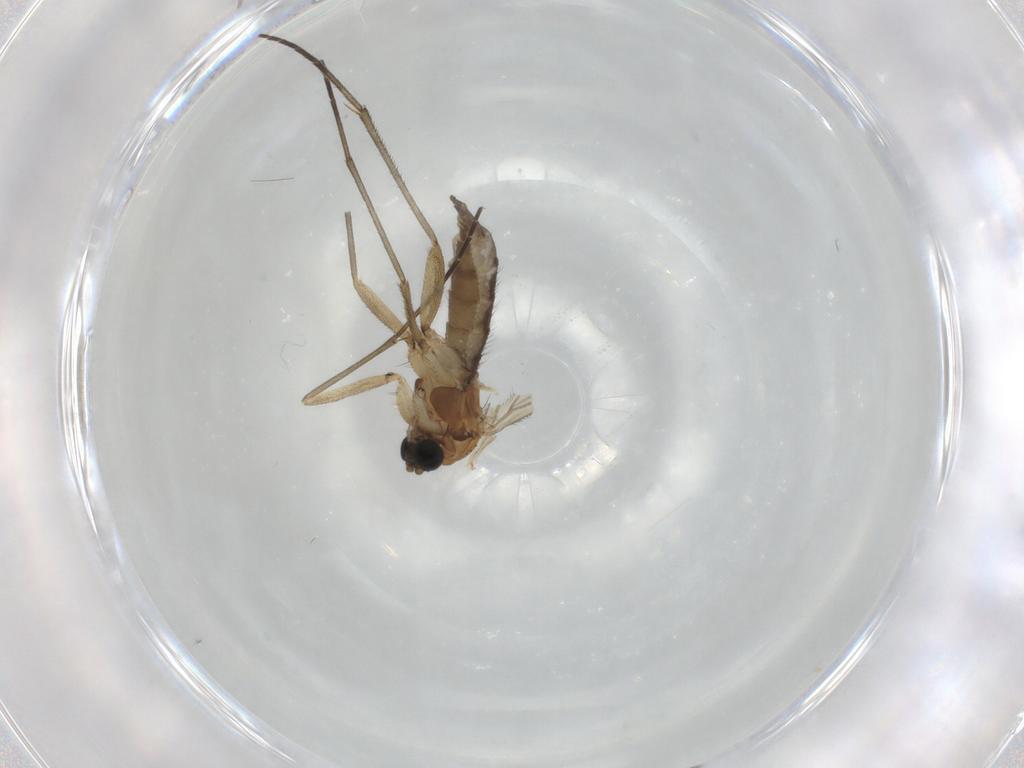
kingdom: Animalia
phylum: Arthropoda
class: Insecta
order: Diptera
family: Sciaridae
